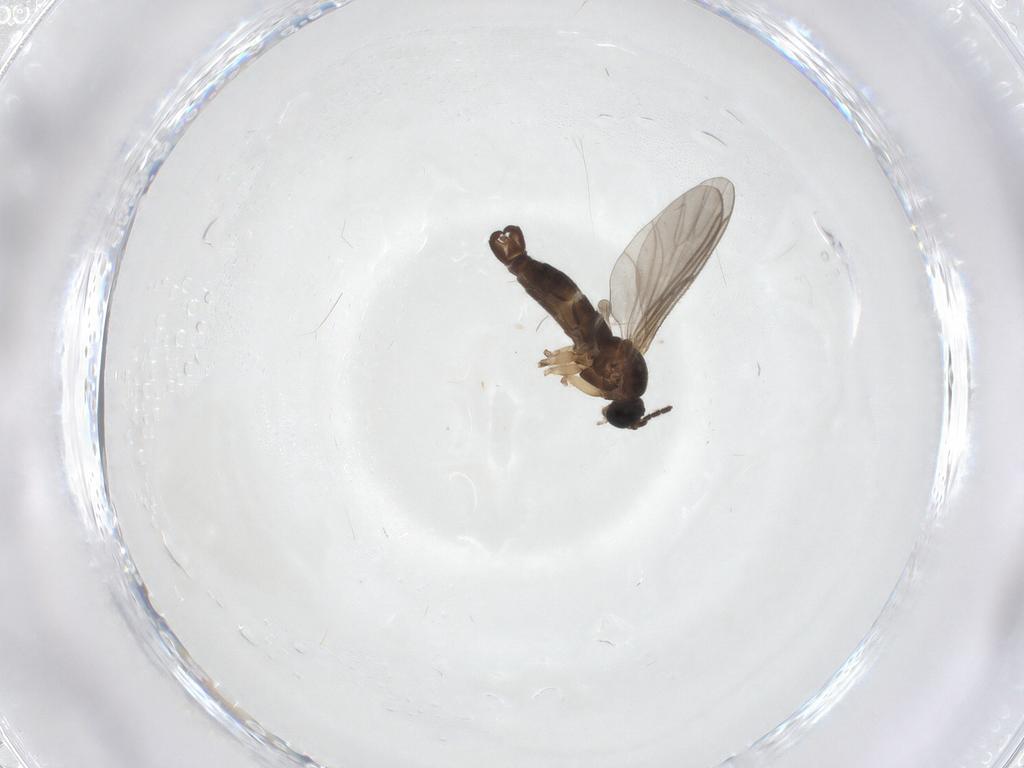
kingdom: Animalia
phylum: Arthropoda
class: Insecta
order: Diptera
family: Sciaridae
